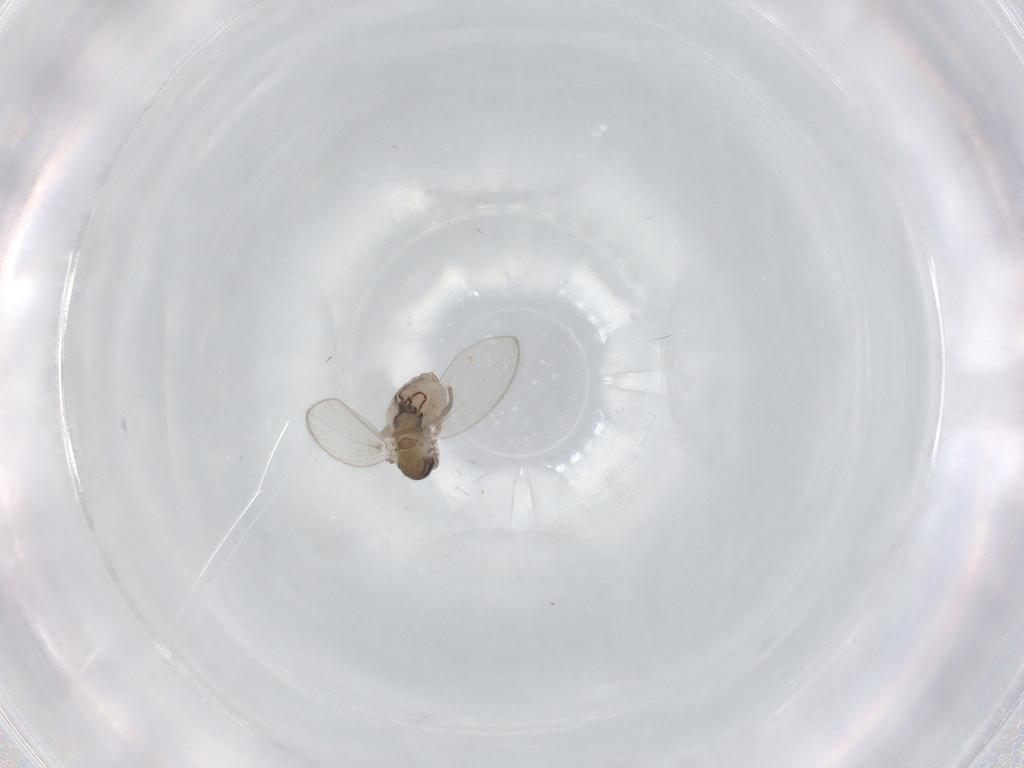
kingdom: Animalia
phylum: Arthropoda
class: Insecta
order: Diptera
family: Psychodidae
